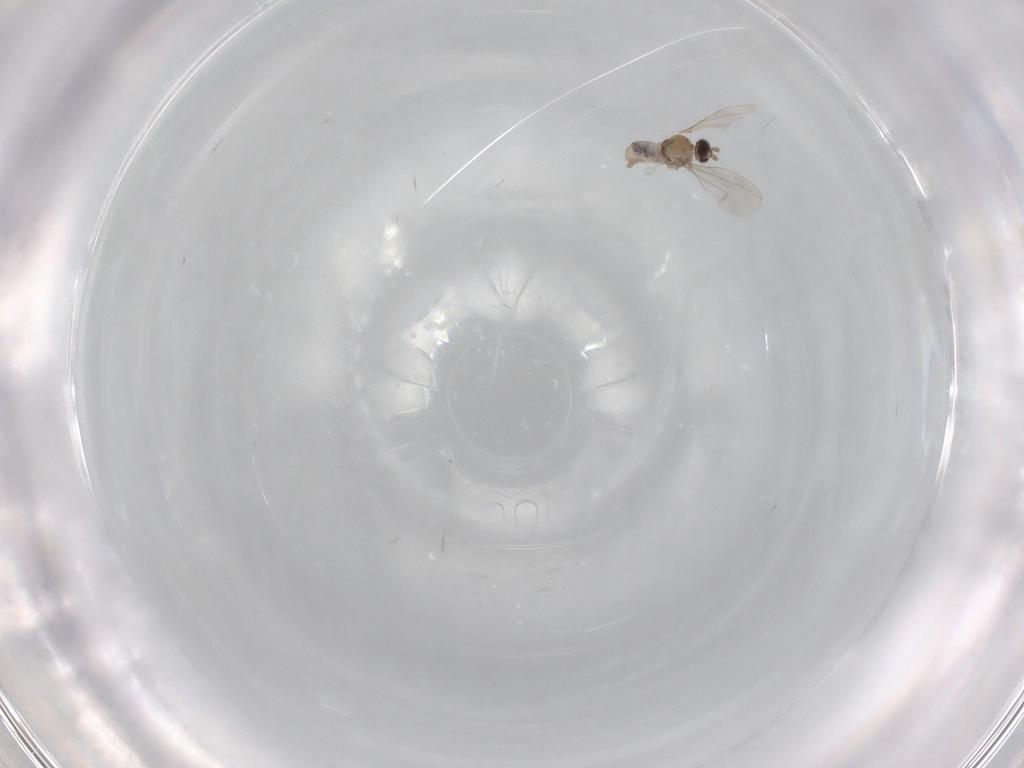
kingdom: Animalia
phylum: Arthropoda
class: Insecta
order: Diptera
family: Cecidomyiidae
